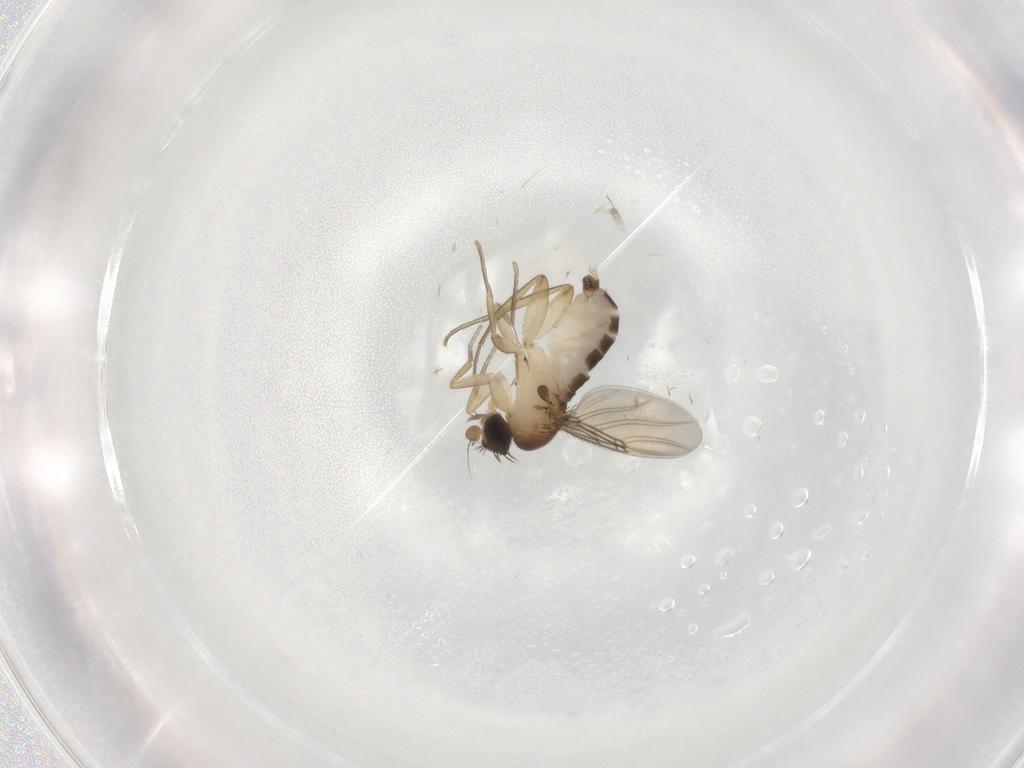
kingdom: Animalia
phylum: Arthropoda
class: Insecta
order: Diptera
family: Phoridae
